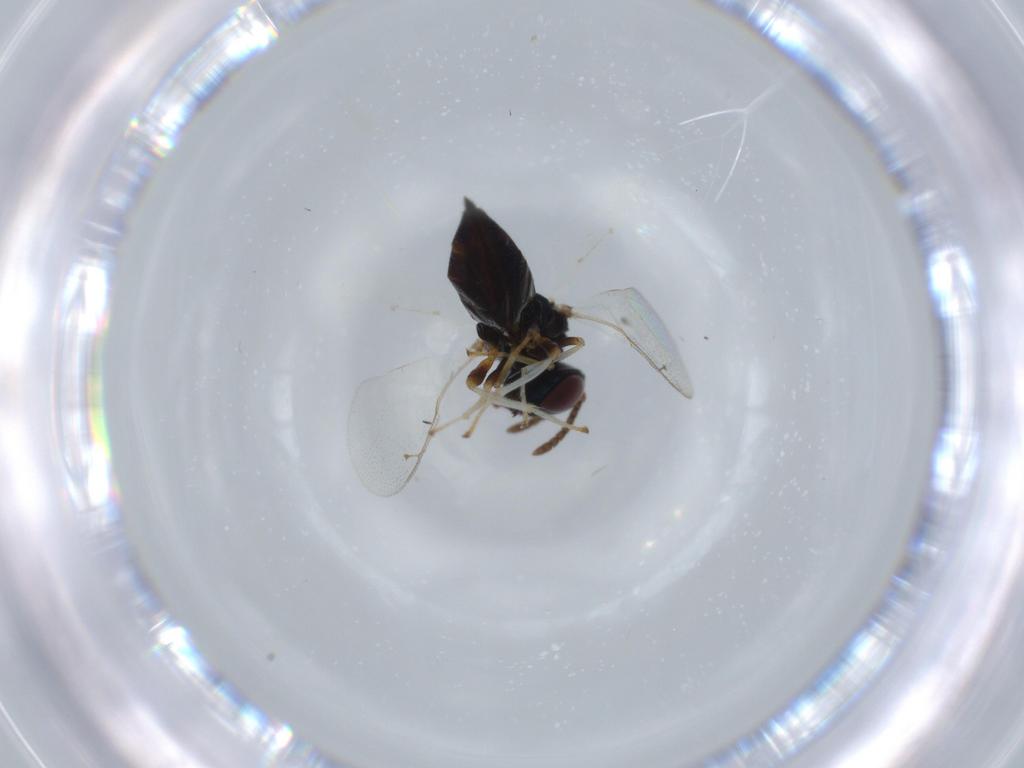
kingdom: Animalia
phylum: Arthropoda
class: Insecta
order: Hymenoptera
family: Pteromalidae
